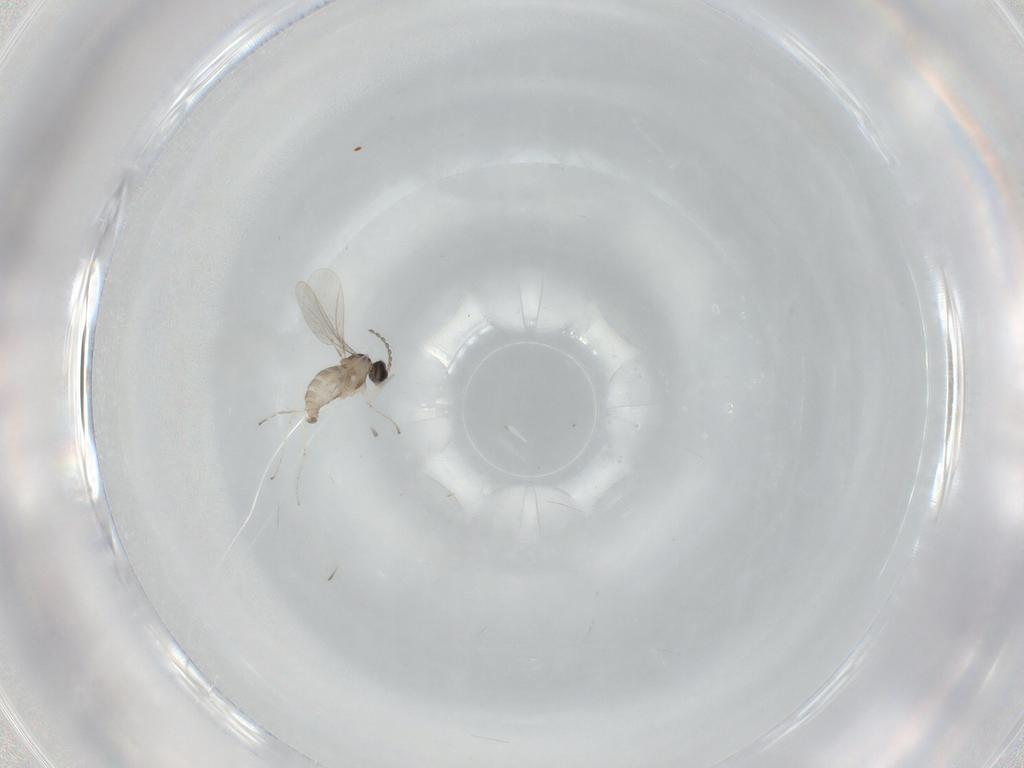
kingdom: Animalia
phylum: Arthropoda
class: Insecta
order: Diptera
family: Cecidomyiidae
